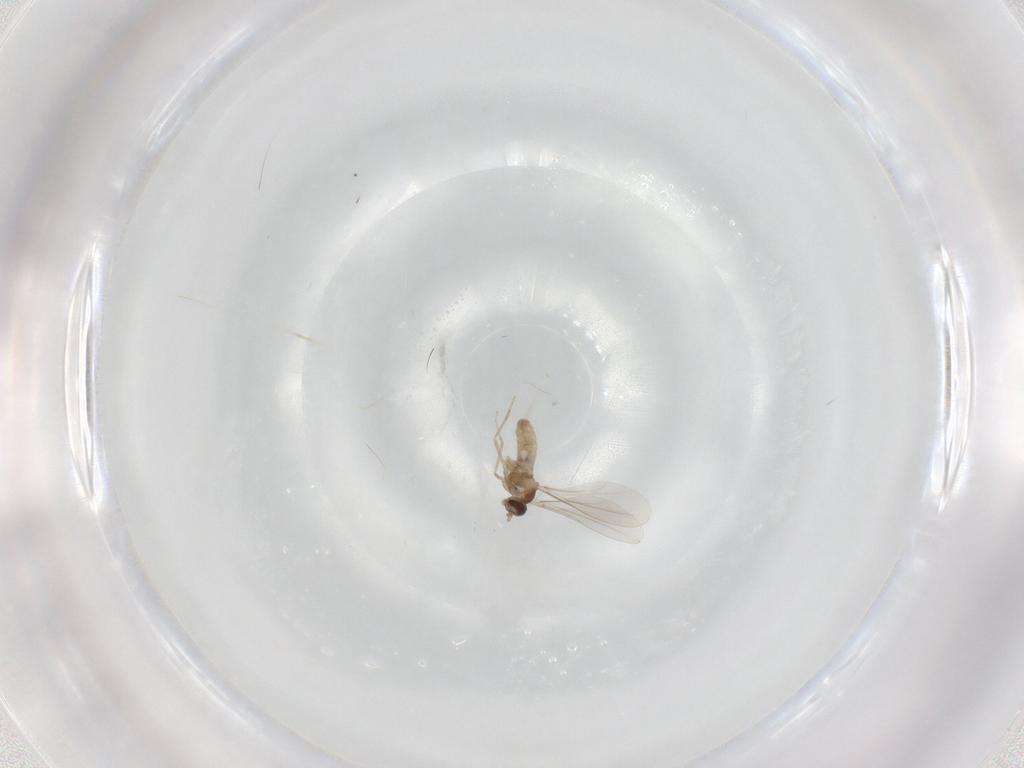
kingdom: Animalia
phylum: Arthropoda
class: Insecta
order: Diptera
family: Cecidomyiidae
